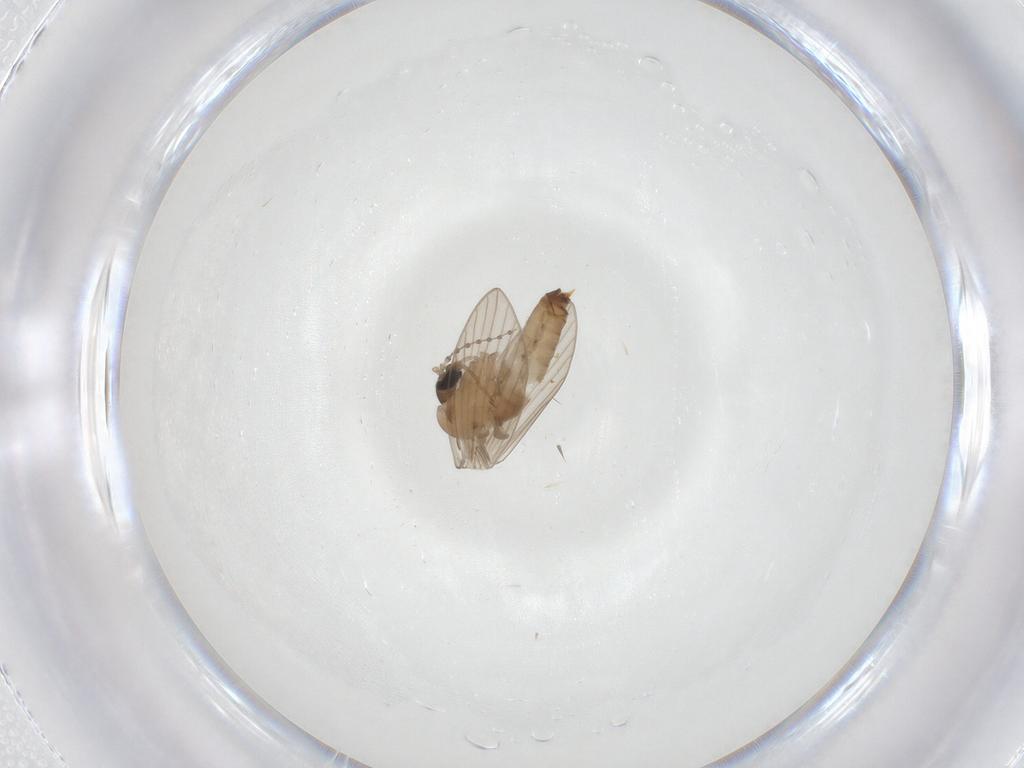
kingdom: Animalia
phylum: Arthropoda
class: Insecta
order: Diptera
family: Psychodidae
